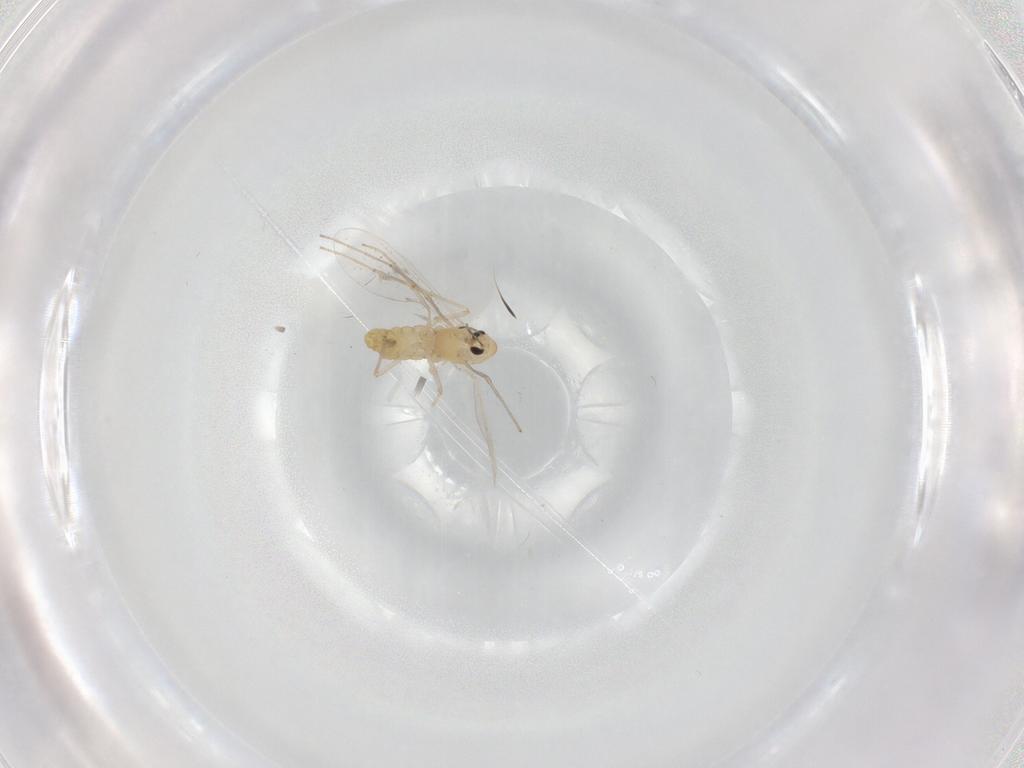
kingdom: Animalia
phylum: Arthropoda
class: Insecta
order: Diptera
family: Chironomidae
